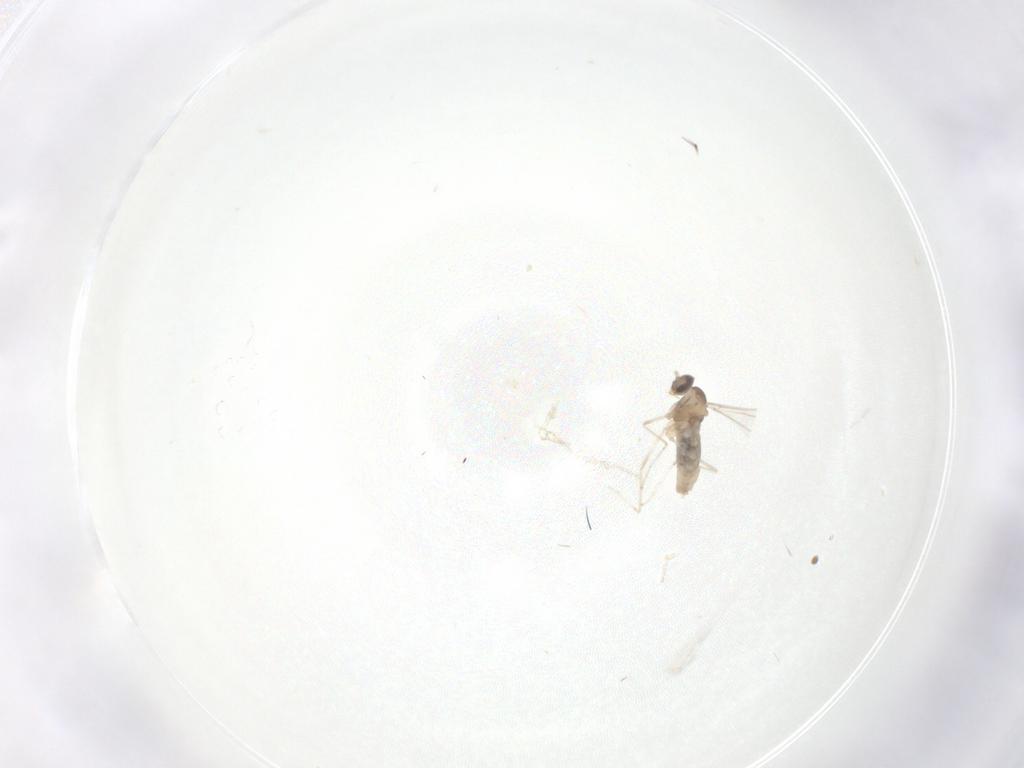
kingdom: Animalia
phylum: Arthropoda
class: Insecta
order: Diptera
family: Cecidomyiidae
